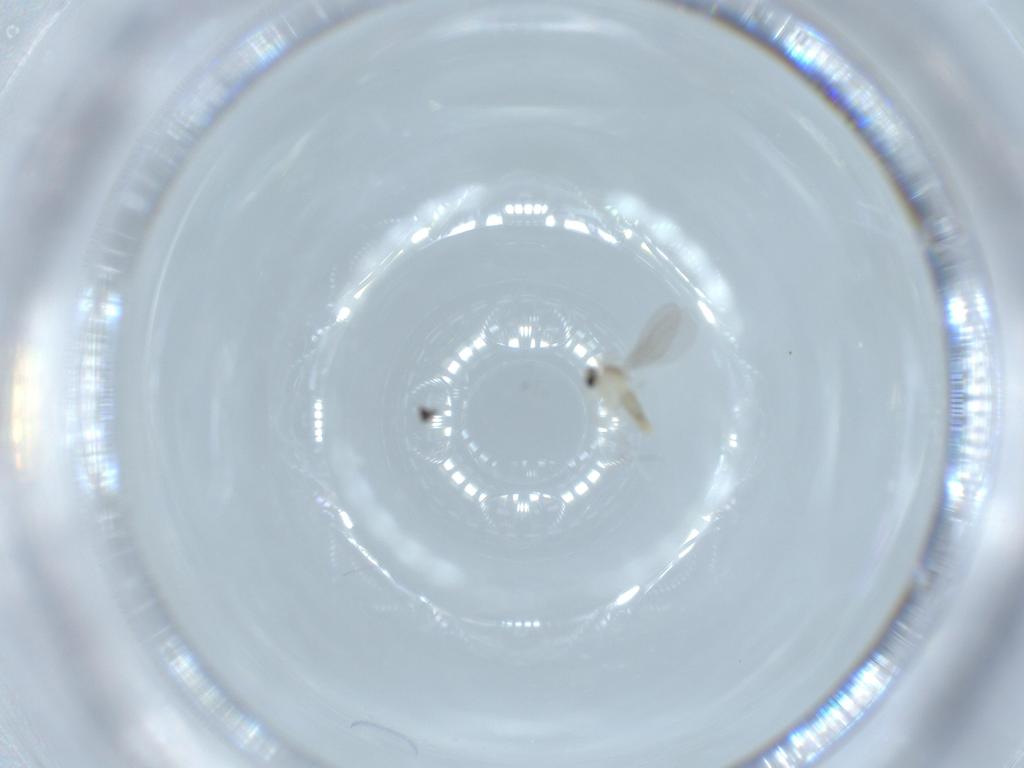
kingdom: Animalia
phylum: Arthropoda
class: Insecta
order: Diptera
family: Cecidomyiidae
